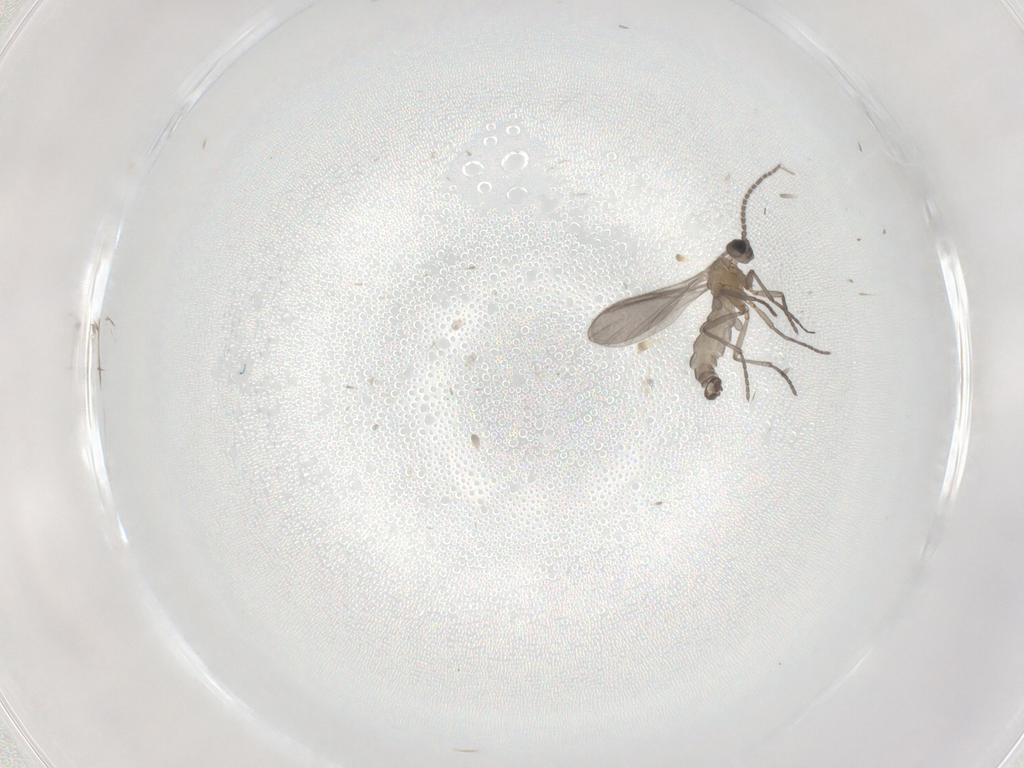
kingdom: Animalia
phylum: Arthropoda
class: Insecta
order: Diptera
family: Sciaridae
